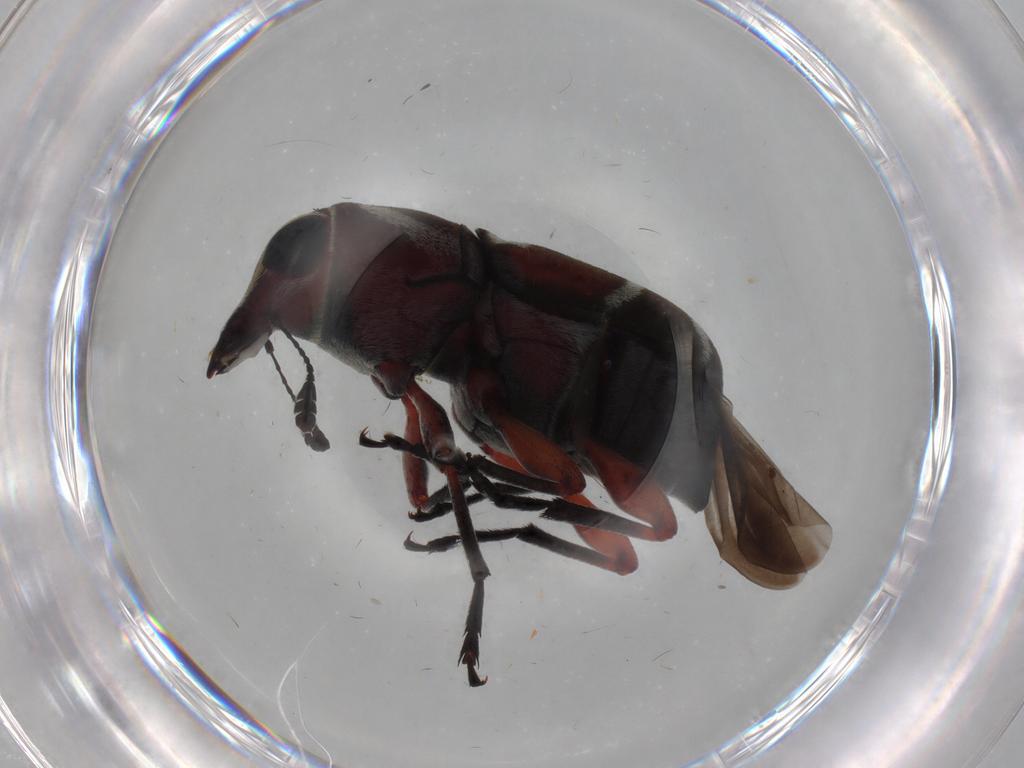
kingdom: Animalia
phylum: Arthropoda
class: Insecta
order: Coleoptera
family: Anthribidae
